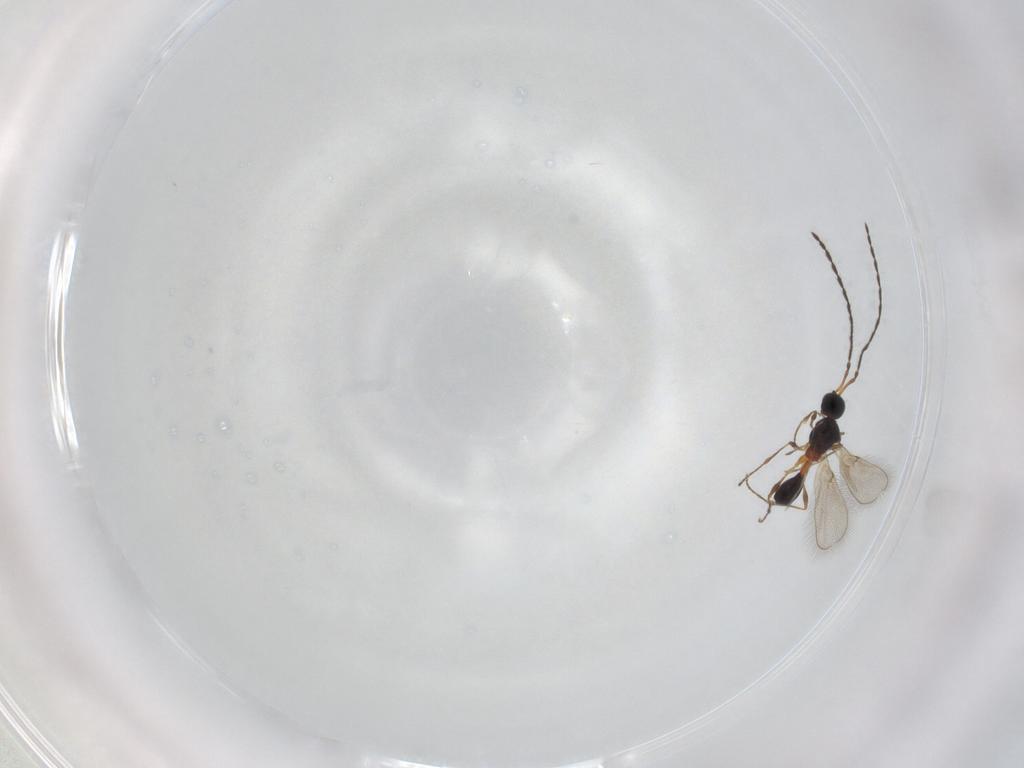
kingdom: Animalia
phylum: Arthropoda
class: Insecta
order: Hymenoptera
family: Diapriidae
